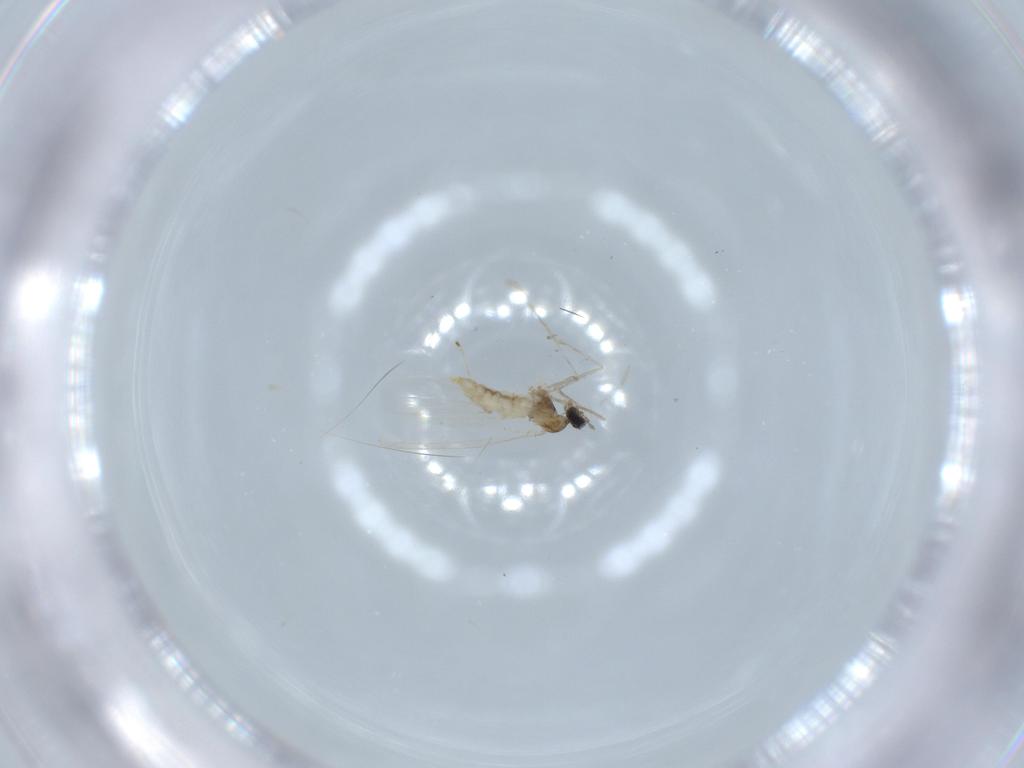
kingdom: Animalia
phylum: Arthropoda
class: Insecta
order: Diptera
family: Cecidomyiidae
